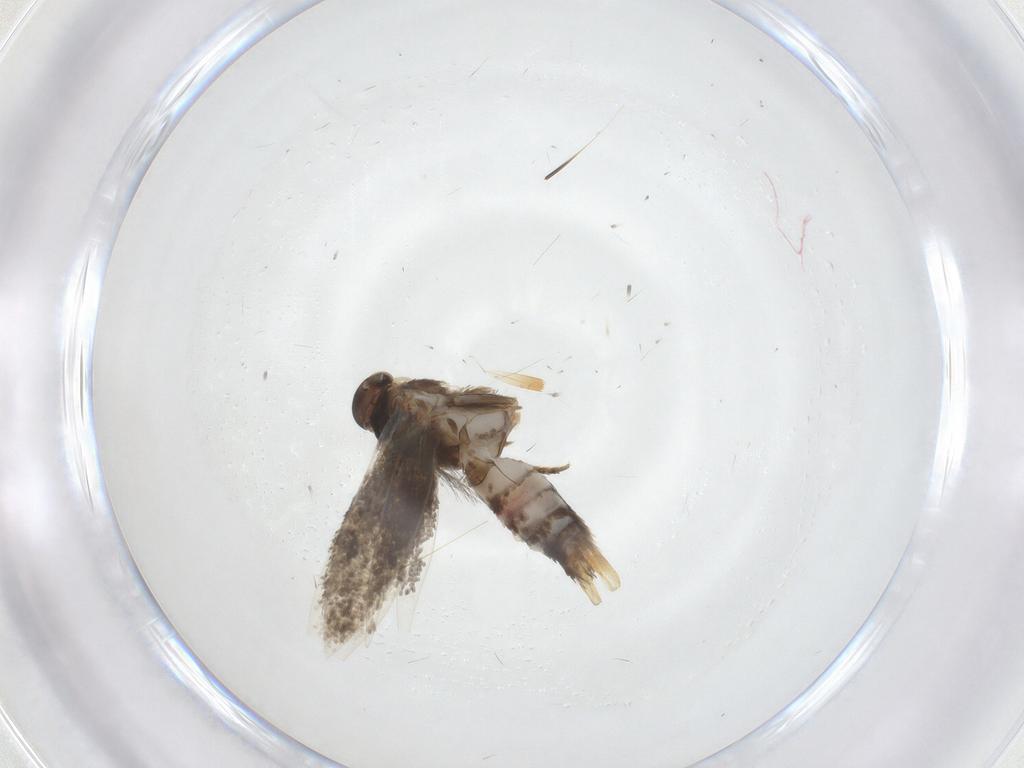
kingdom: Animalia
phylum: Arthropoda
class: Insecta
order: Lepidoptera
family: Elachistidae
